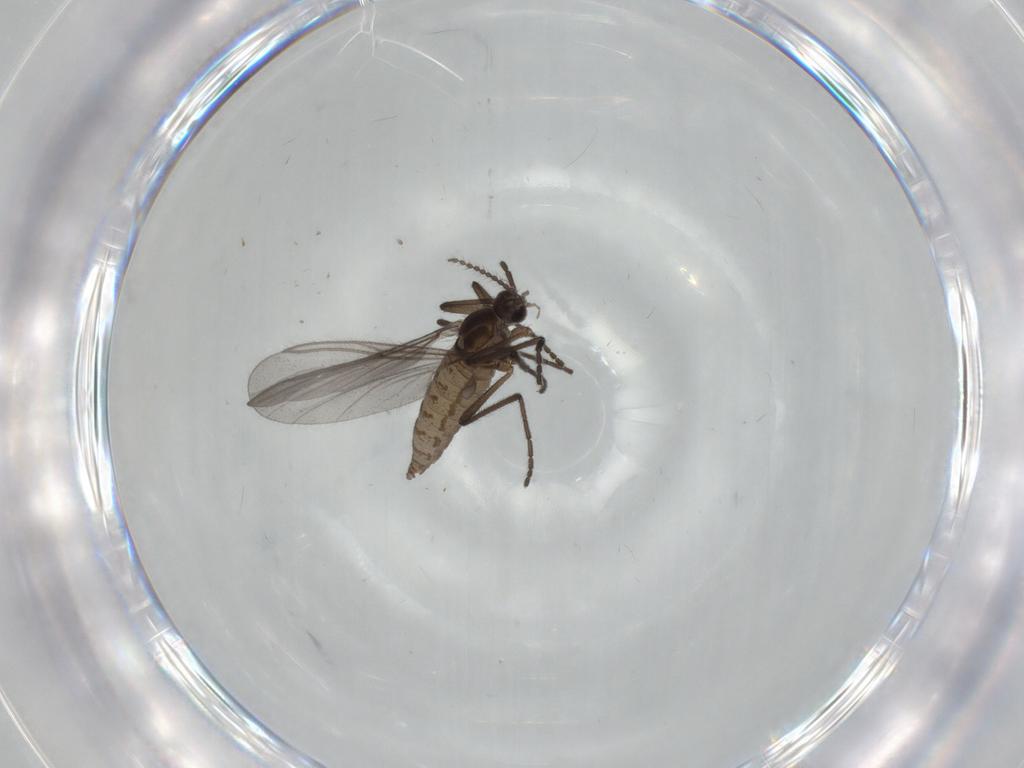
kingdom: Animalia
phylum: Arthropoda
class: Insecta
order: Diptera
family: Cecidomyiidae
